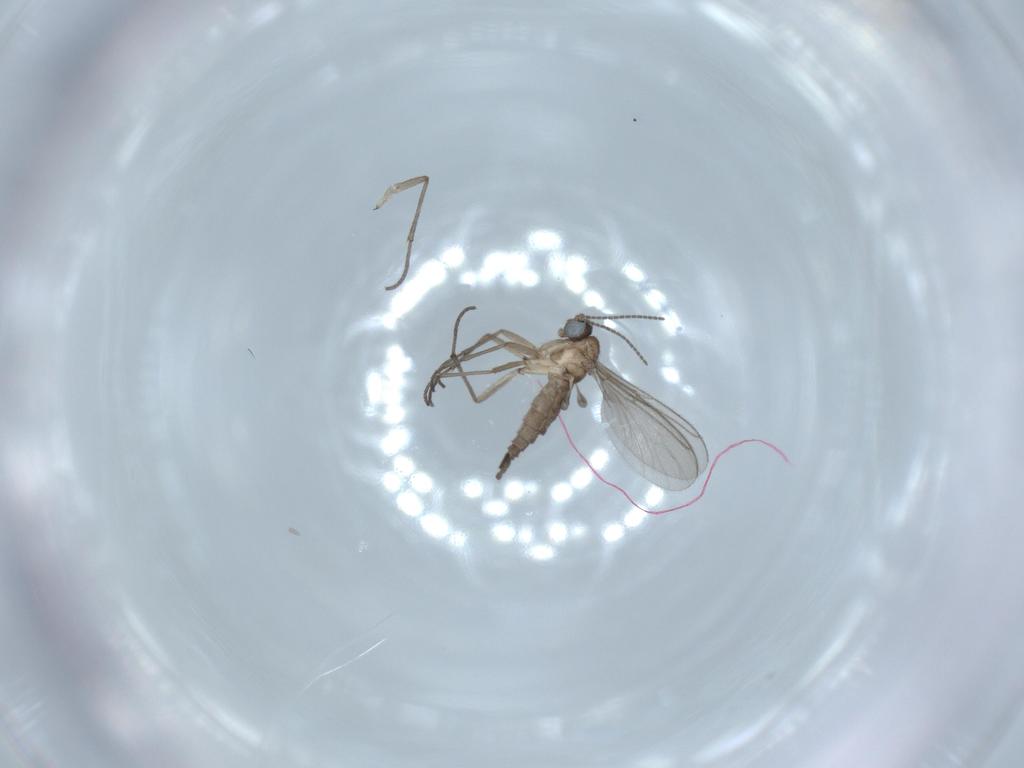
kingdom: Animalia
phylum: Arthropoda
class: Insecta
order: Diptera
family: Sciaridae
